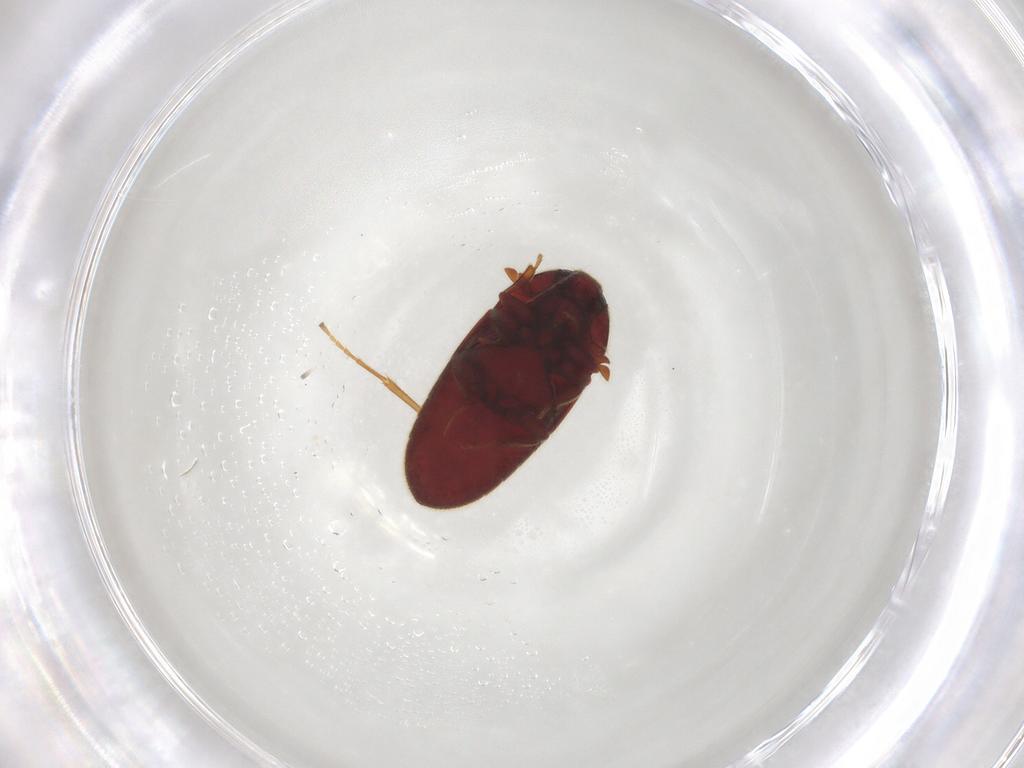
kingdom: Animalia
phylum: Arthropoda
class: Insecta
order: Coleoptera
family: Throscidae
